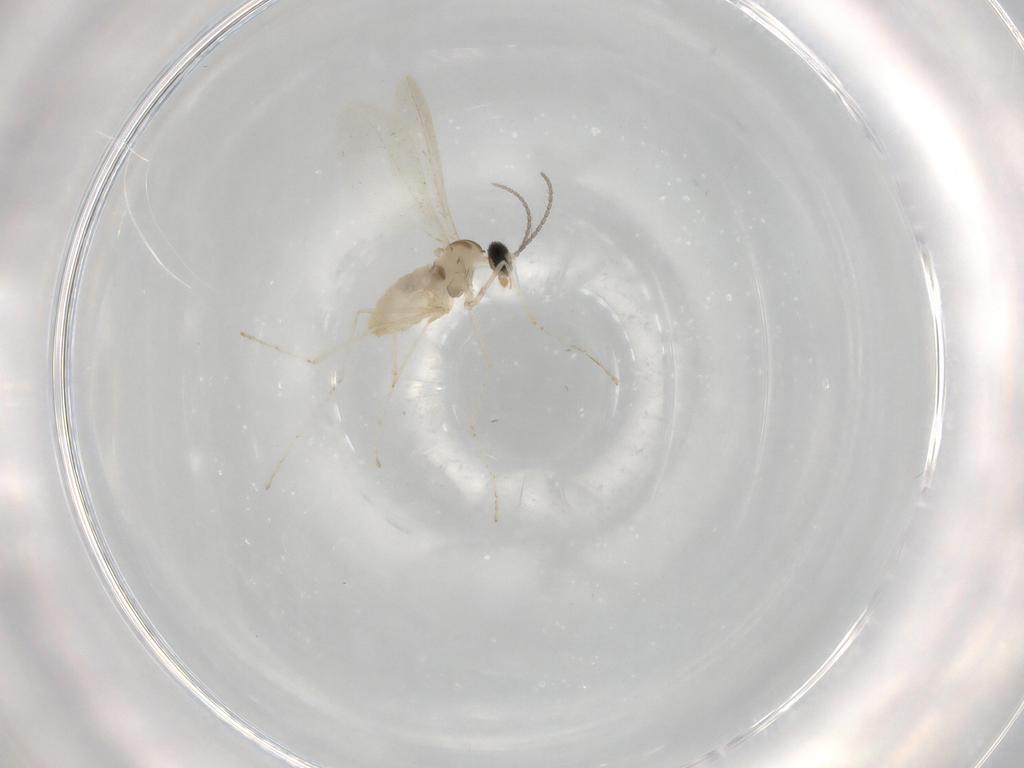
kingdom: Animalia
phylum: Arthropoda
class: Insecta
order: Diptera
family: Cecidomyiidae
